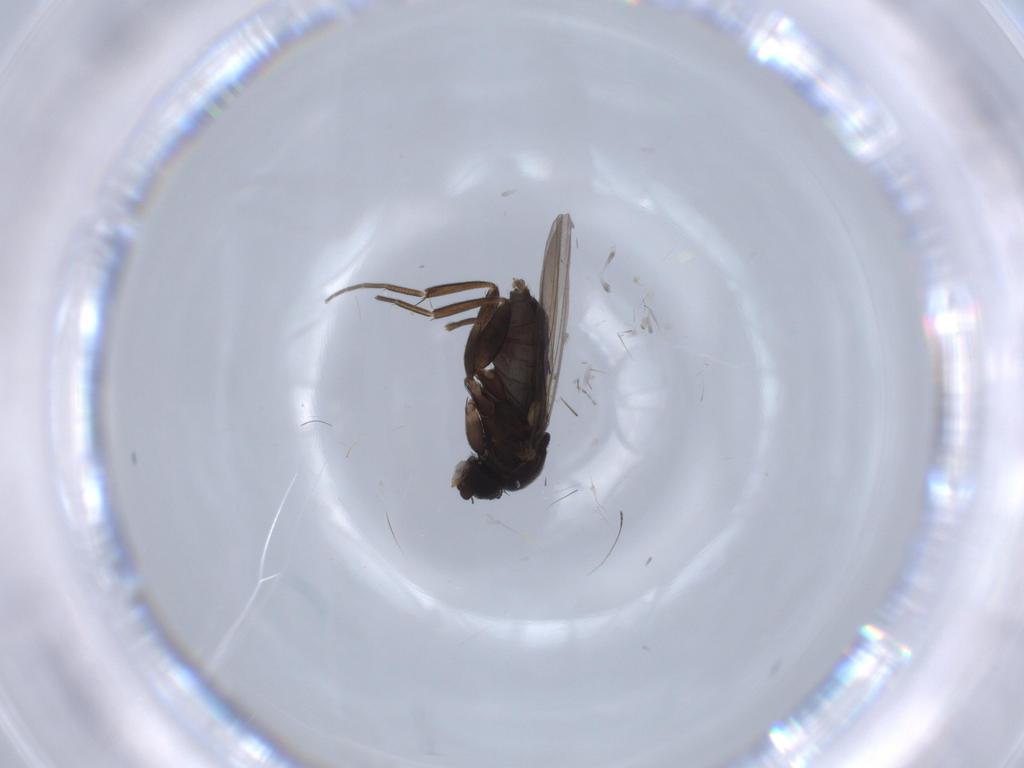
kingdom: Animalia
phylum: Arthropoda
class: Insecta
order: Diptera
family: Phoridae
